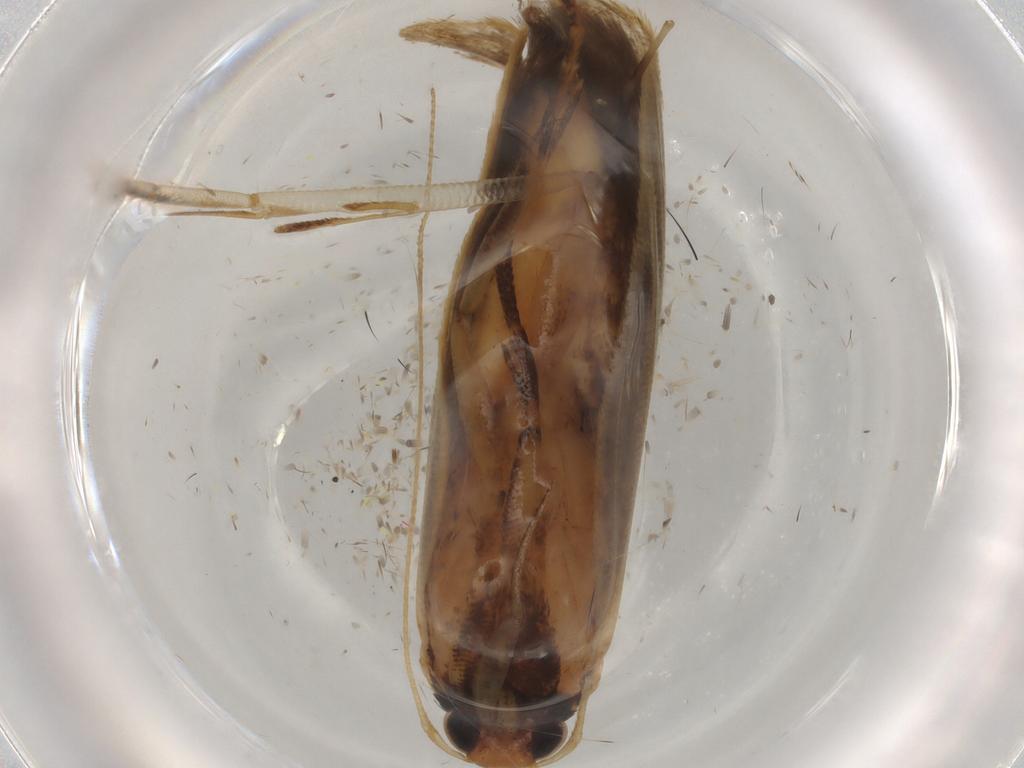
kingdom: Animalia
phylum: Arthropoda
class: Insecta
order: Lepidoptera
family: Gelechiidae
